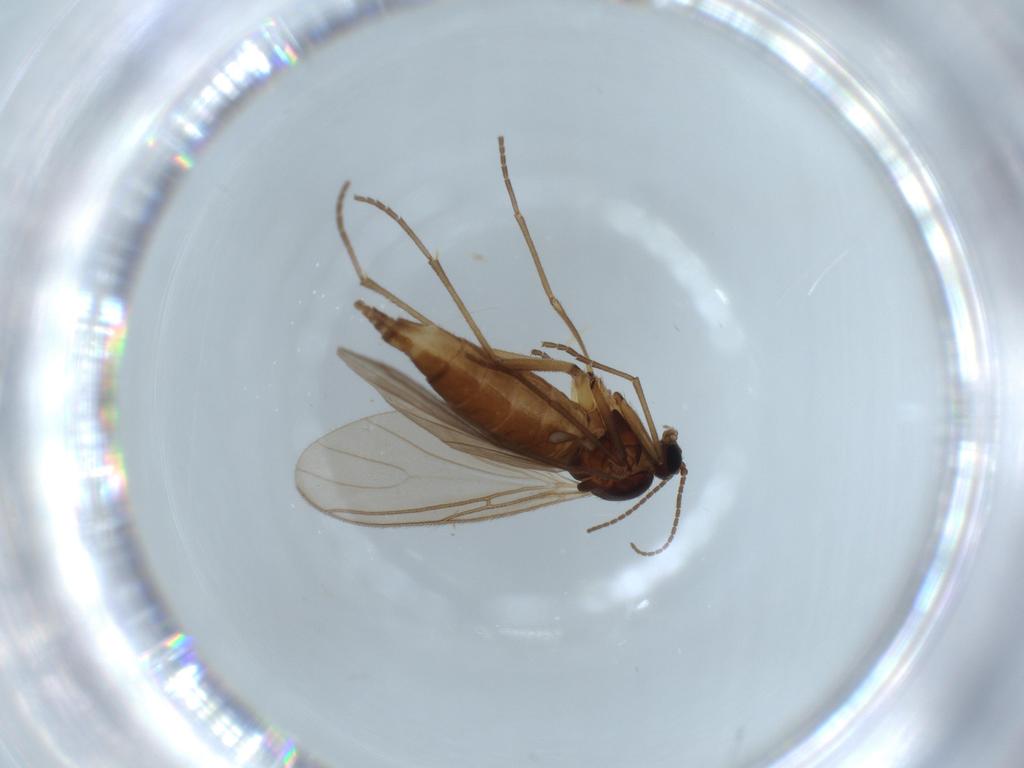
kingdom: Animalia
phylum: Arthropoda
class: Insecta
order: Diptera
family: Sciaridae
